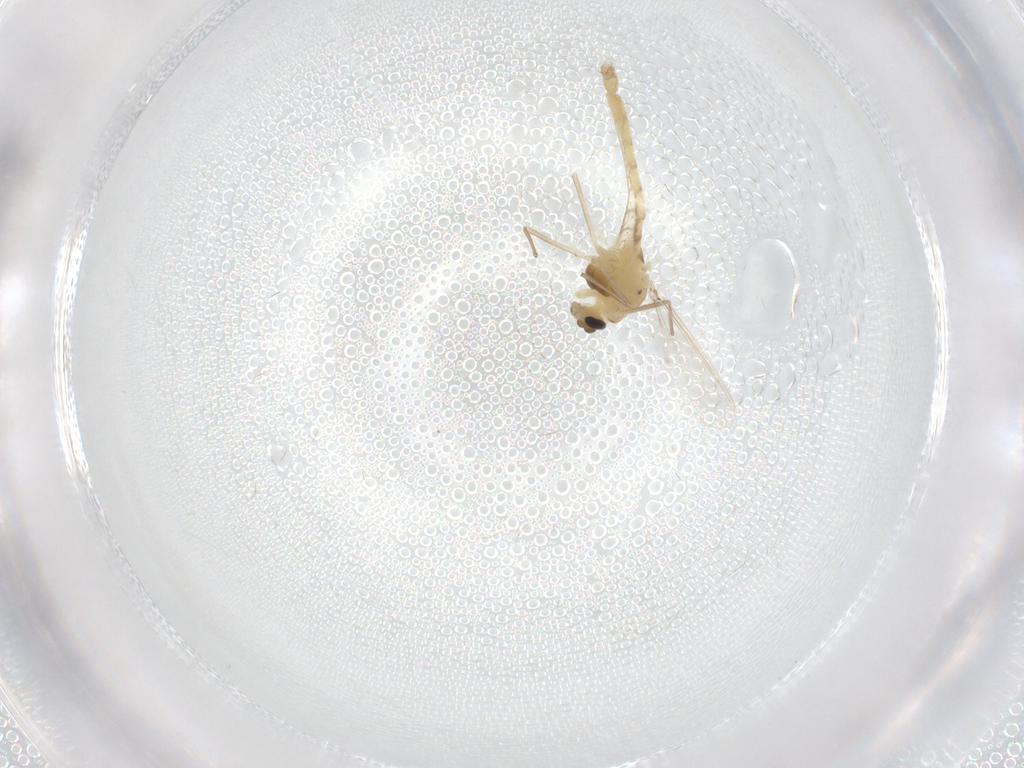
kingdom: Animalia
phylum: Arthropoda
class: Insecta
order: Diptera
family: Chironomidae
